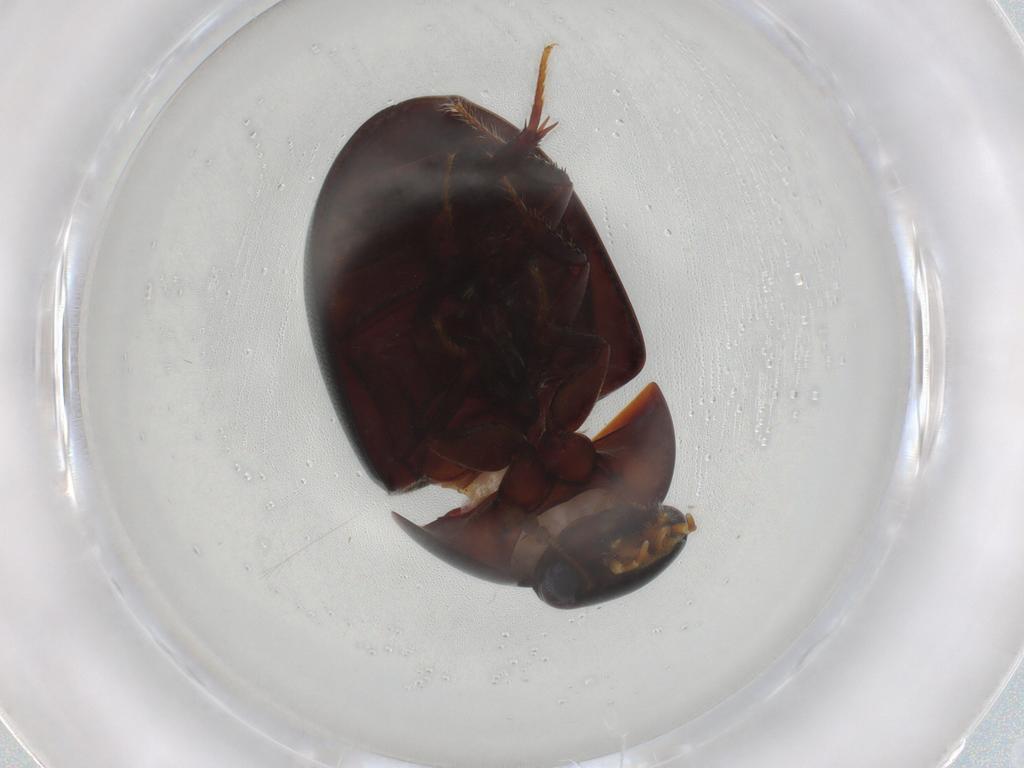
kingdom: Animalia
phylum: Arthropoda
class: Insecta
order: Coleoptera
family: Hydrophilidae
